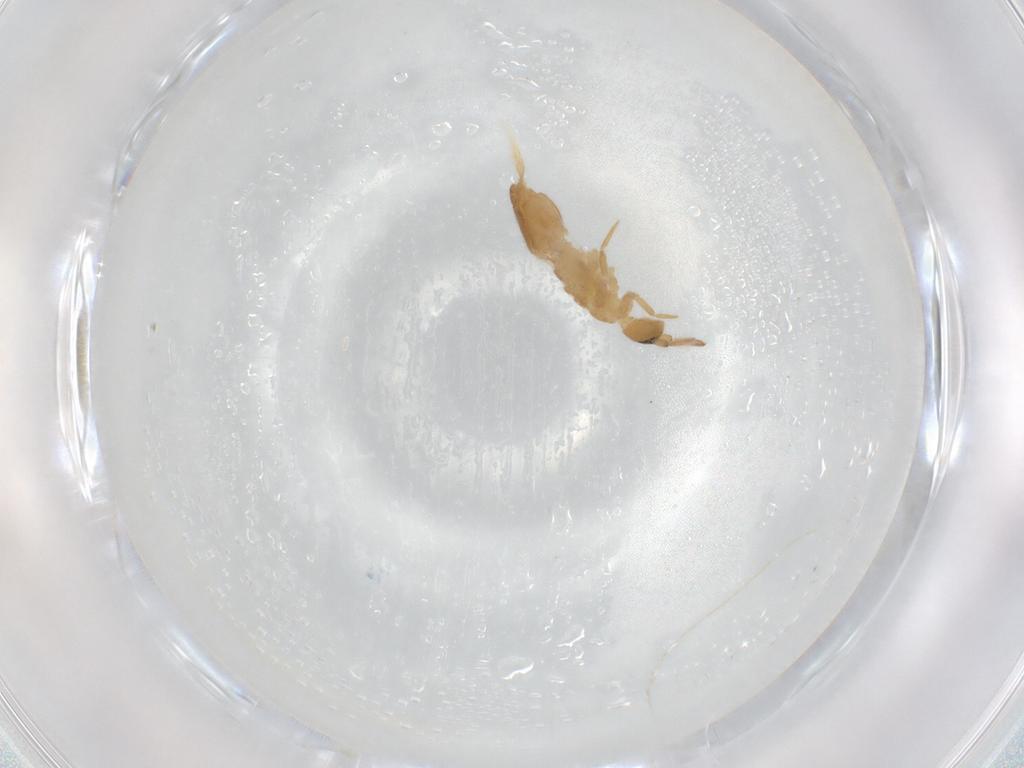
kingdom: Animalia
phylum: Arthropoda
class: Collembola
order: Entomobryomorpha
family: Entomobryidae
